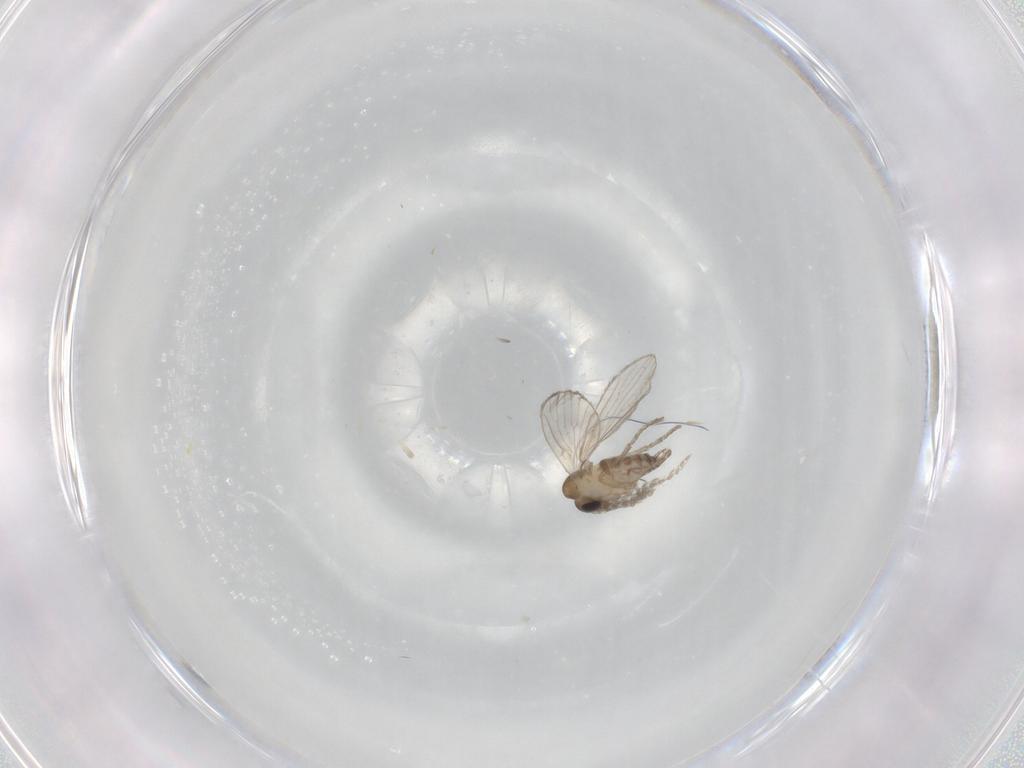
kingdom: Animalia
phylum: Arthropoda
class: Insecta
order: Diptera
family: Psychodidae
